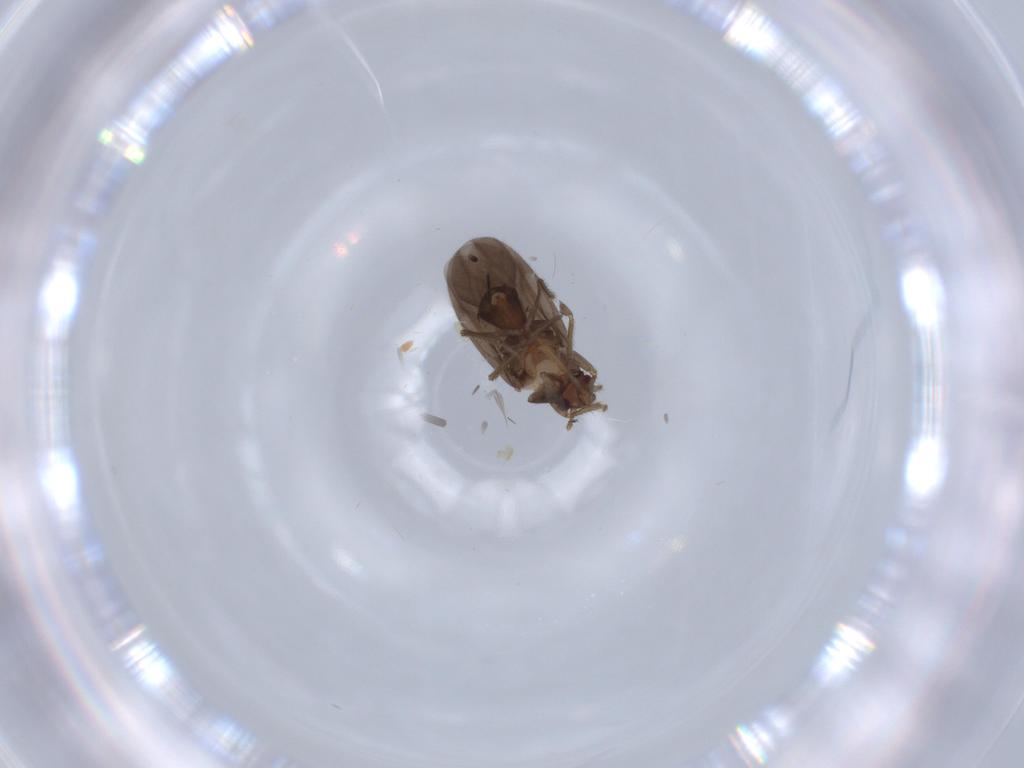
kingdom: Animalia
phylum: Arthropoda
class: Insecta
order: Hemiptera
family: Ceratocombidae
